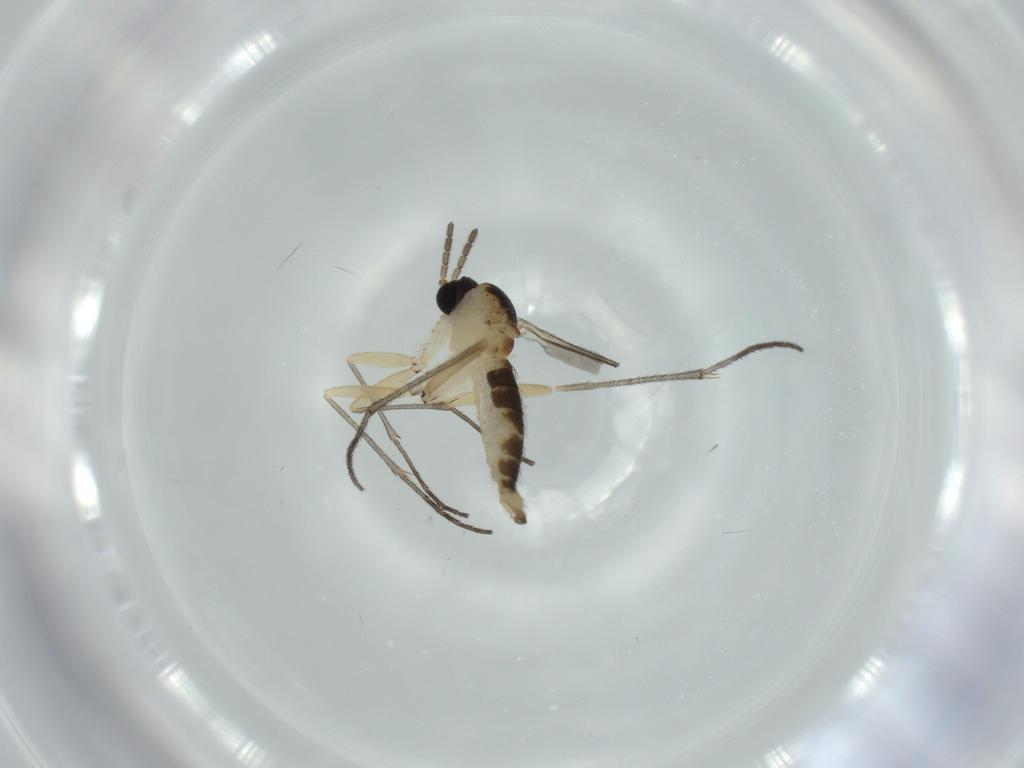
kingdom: Animalia
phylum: Arthropoda
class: Insecta
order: Diptera
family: Sciaridae
